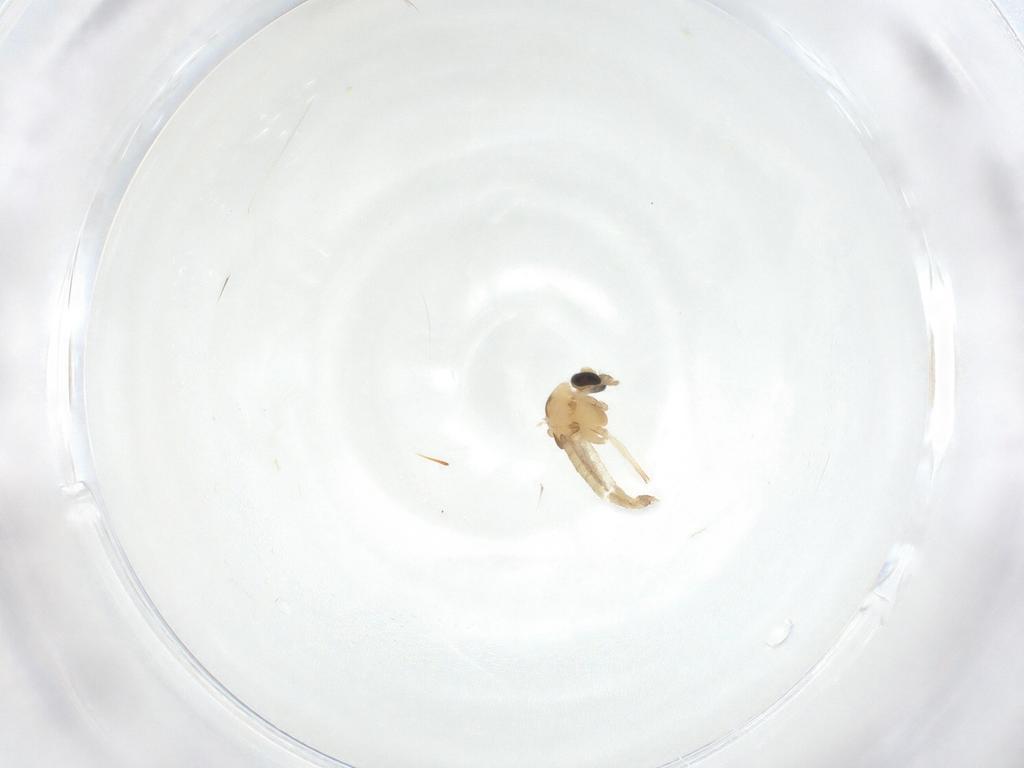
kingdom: Animalia
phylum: Arthropoda
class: Insecta
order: Diptera
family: Chironomidae
